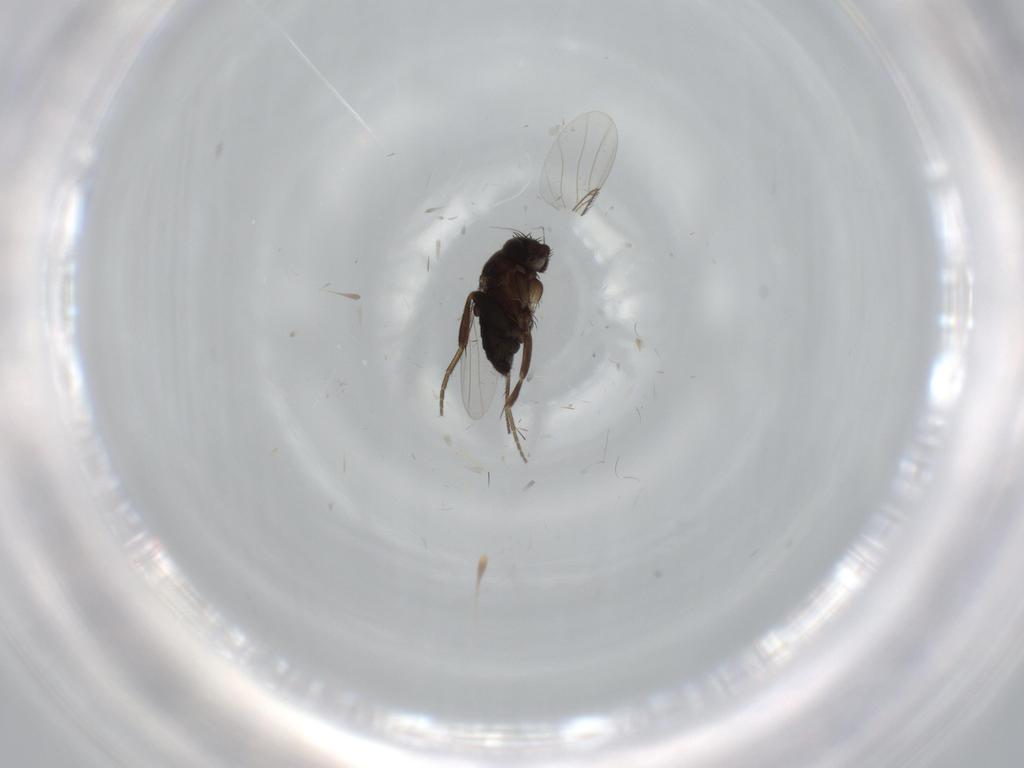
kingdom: Animalia
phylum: Arthropoda
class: Insecta
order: Diptera
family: Phoridae
